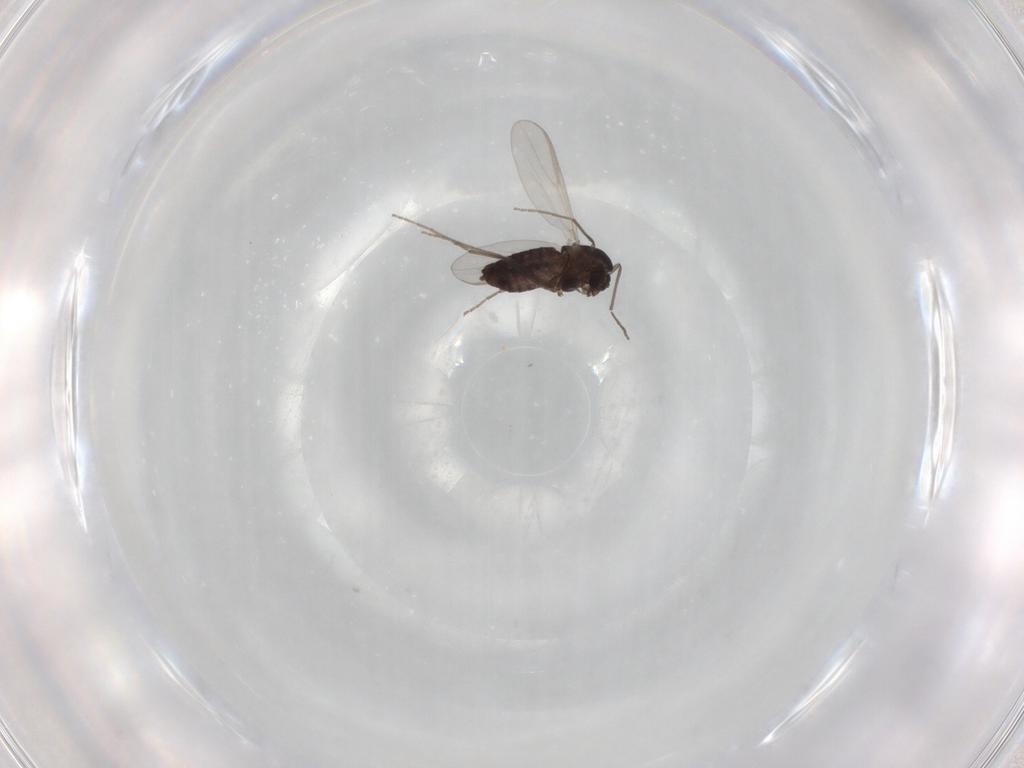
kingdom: Animalia
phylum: Arthropoda
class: Insecta
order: Diptera
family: Chironomidae
